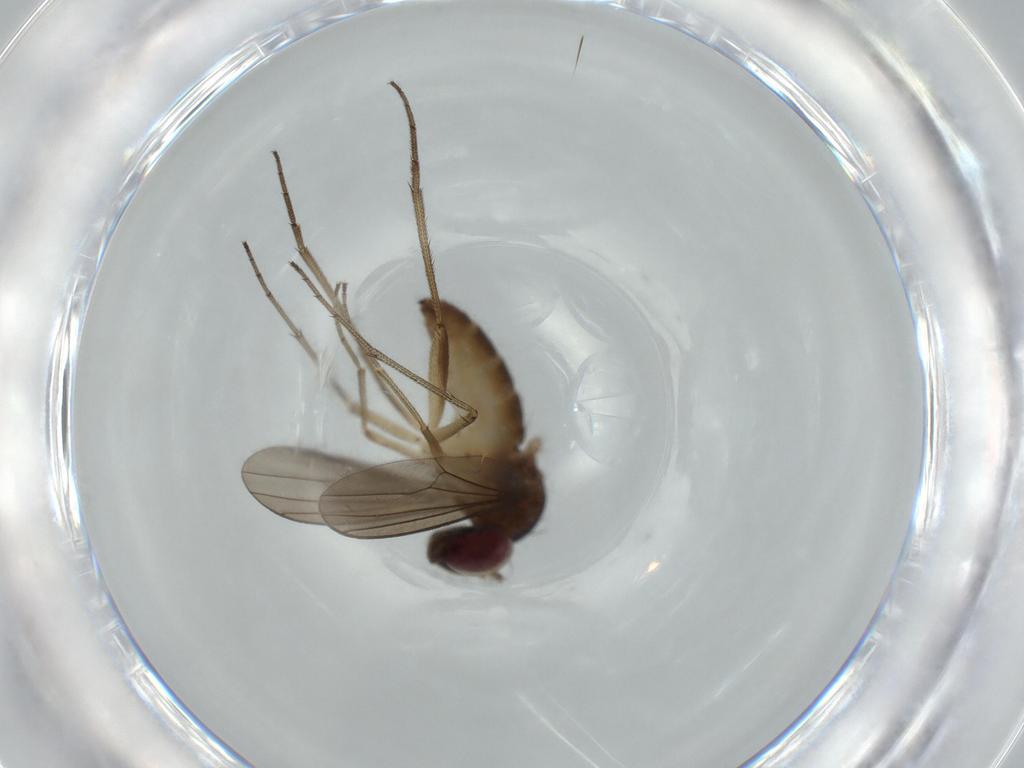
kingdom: Animalia
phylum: Arthropoda
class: Insecta
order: Diptera
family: Dolichopodidae
